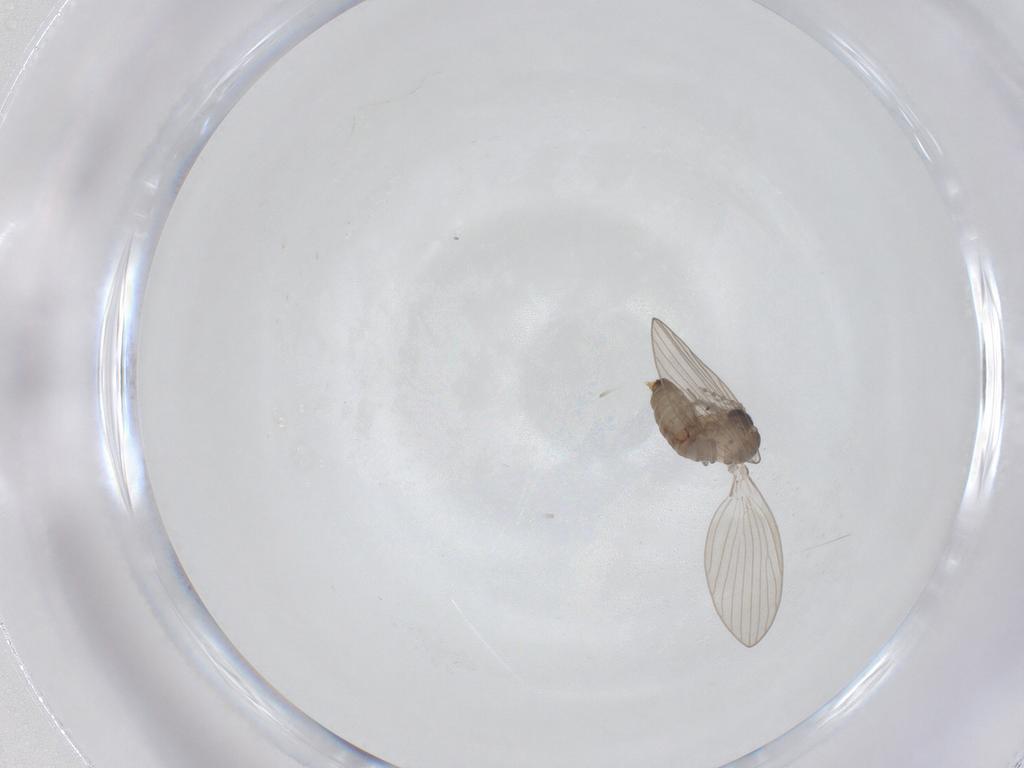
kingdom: Animalia
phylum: Arthropoda
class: Insecta
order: Diptera
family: Psychodidae
